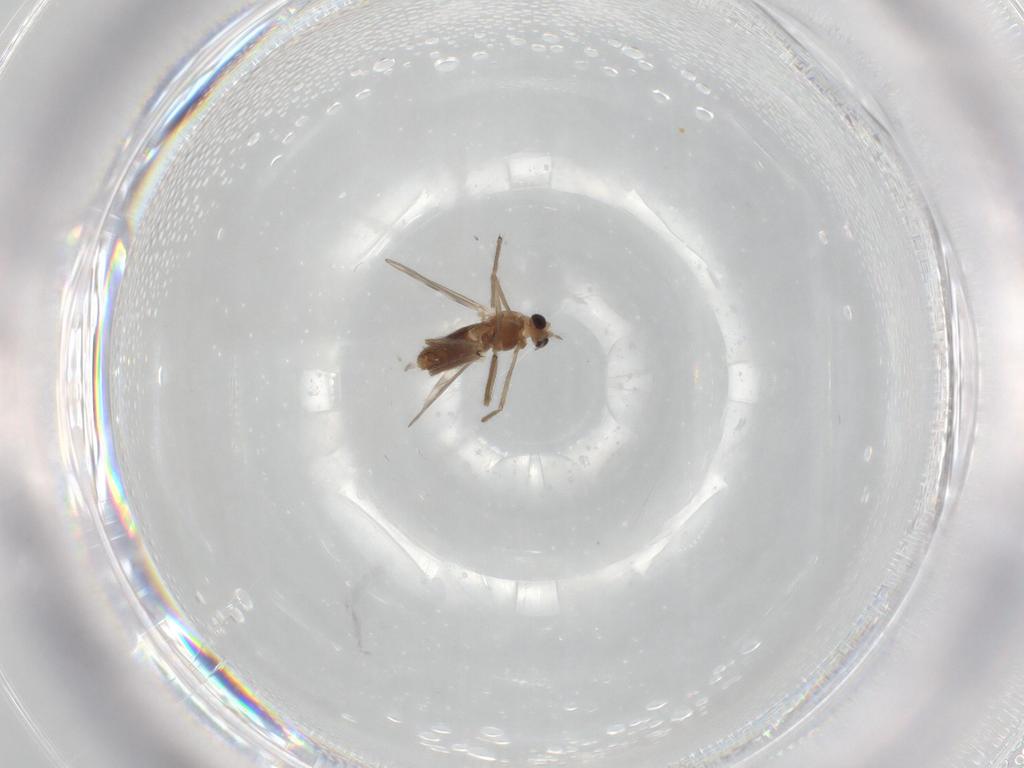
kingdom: Animalia
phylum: Arthropoda
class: Insecta
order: Diptera
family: Chironomidae
